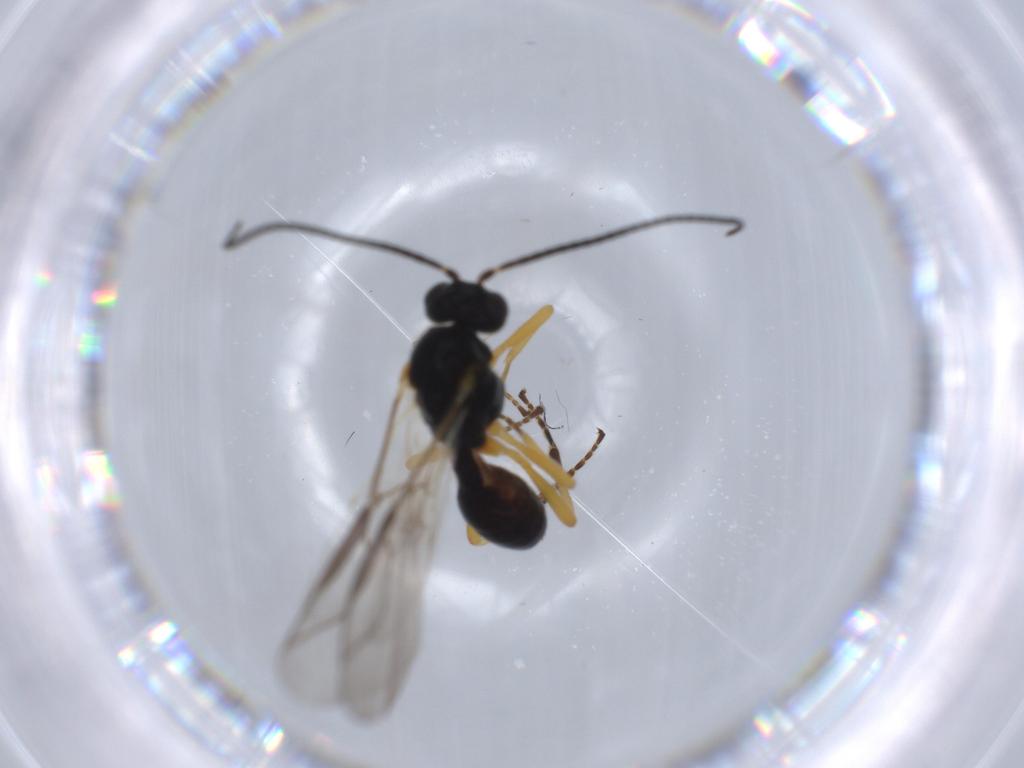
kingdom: Animalia
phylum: Arthropoda
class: Insecta
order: Hymenoptera
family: Braconidae
